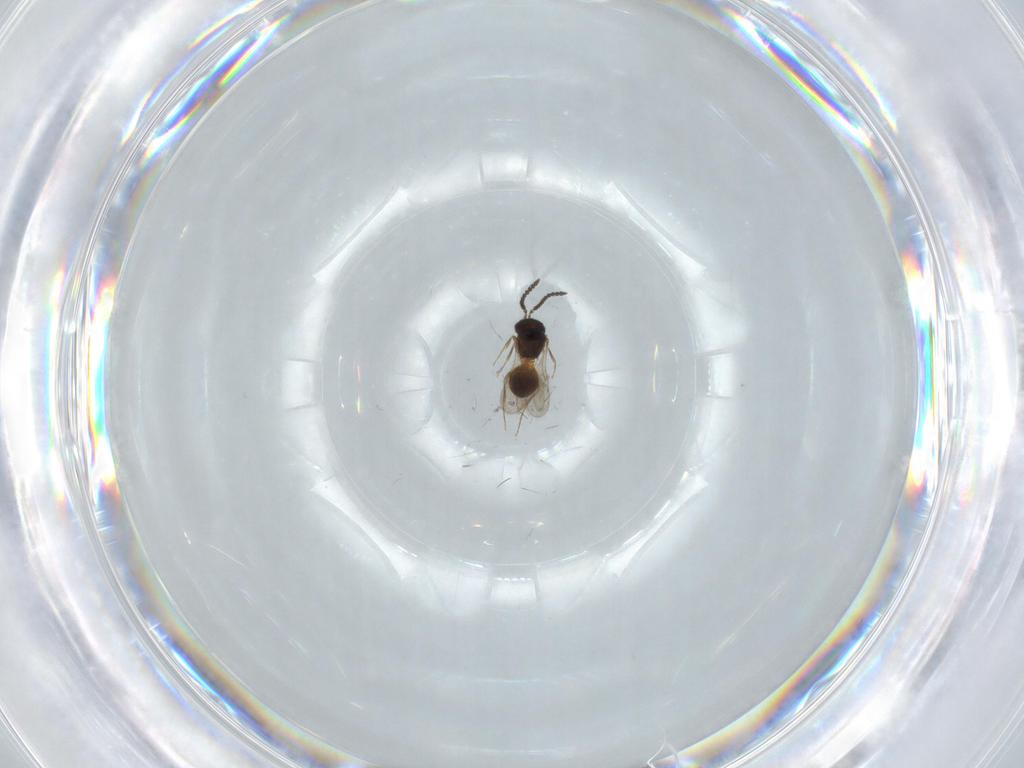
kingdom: Animalia
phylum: Arthropoda
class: Insecta
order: Hymenoptera
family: Scelionidae
